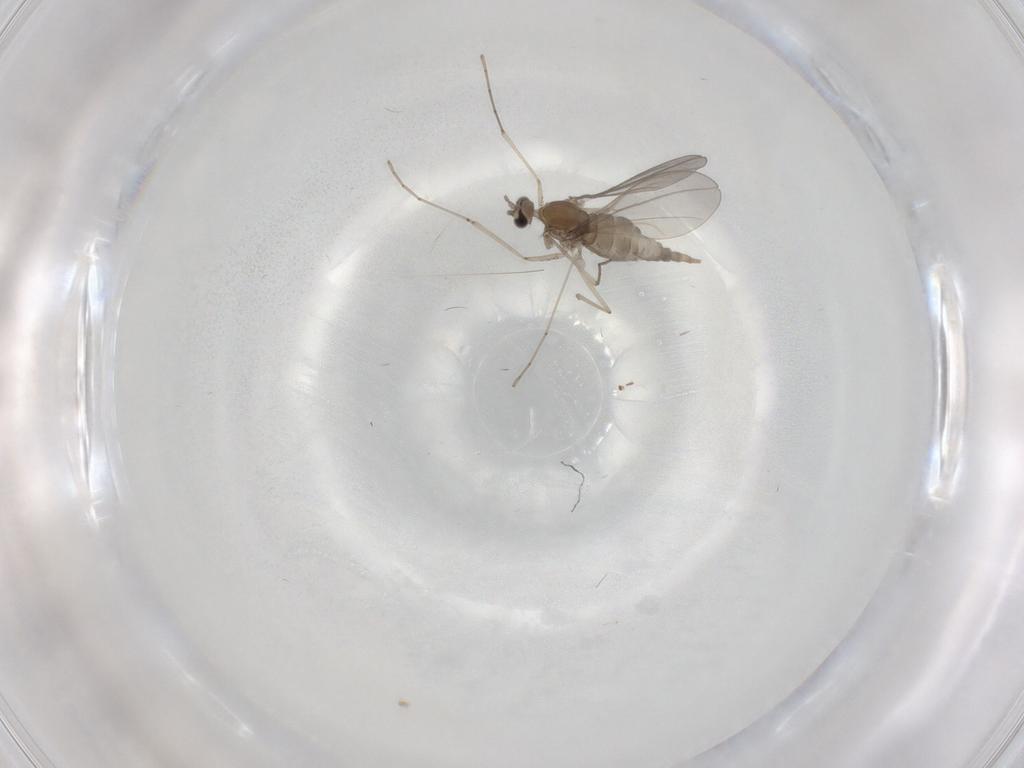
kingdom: Animalia
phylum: Arthropoda
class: Insecta
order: Diptera
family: Cecidomyiidae
